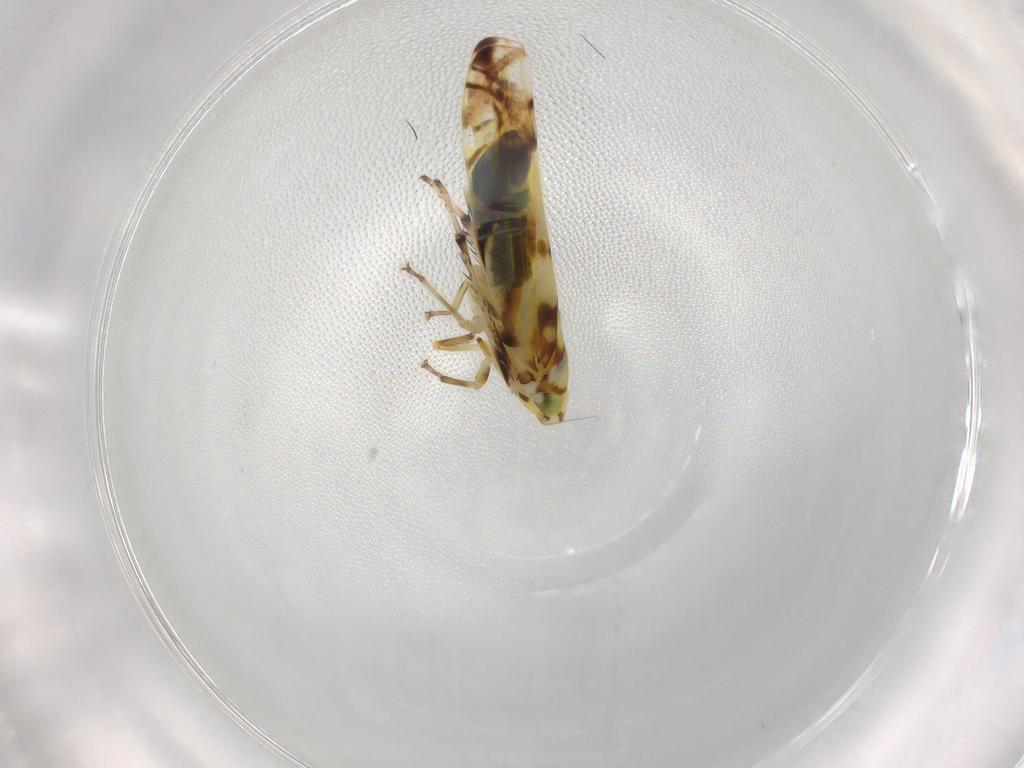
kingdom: Animalia
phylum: Arthropoda
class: Insecta
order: Hemiptera
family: Cicadellidae
